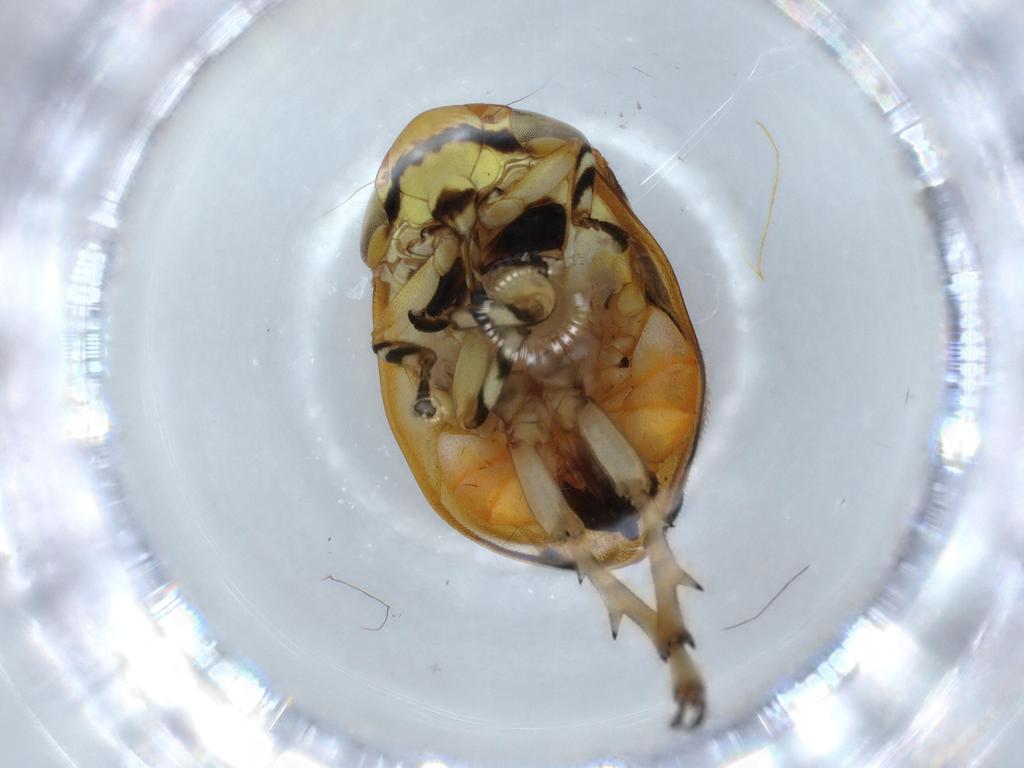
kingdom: Animalia
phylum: Arthropoda
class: Insecta
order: Hemiptera
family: Clastopteridae
